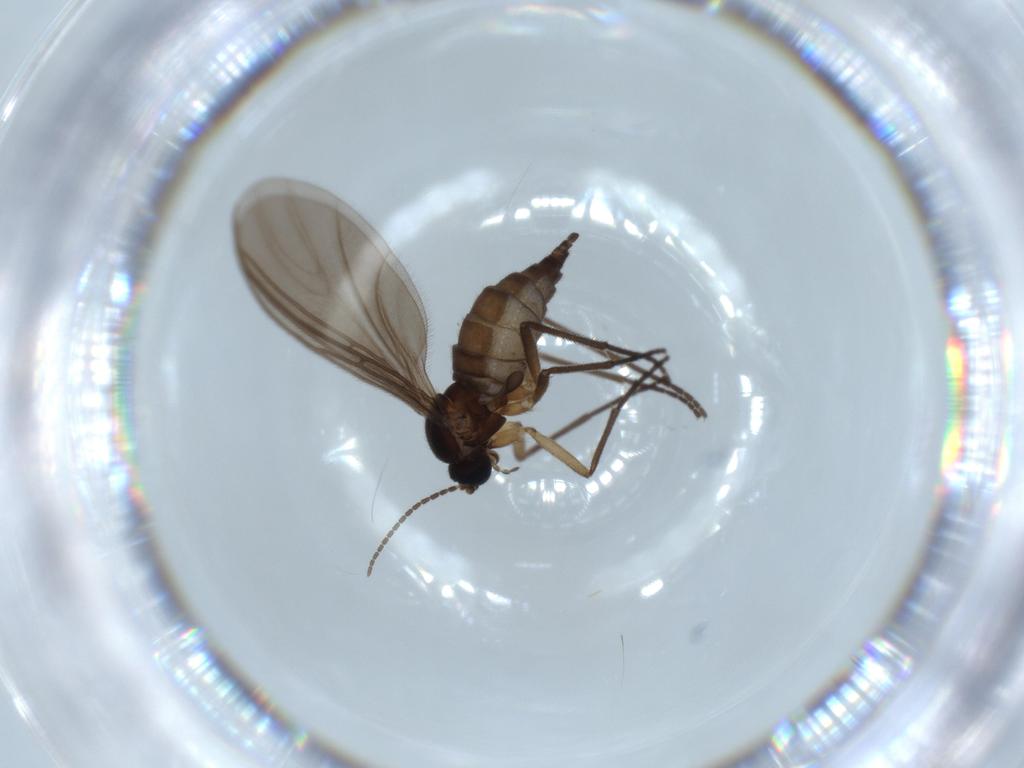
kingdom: Animalia
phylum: Arthropoda
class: Insecta
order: Diptera
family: Sciaridae
